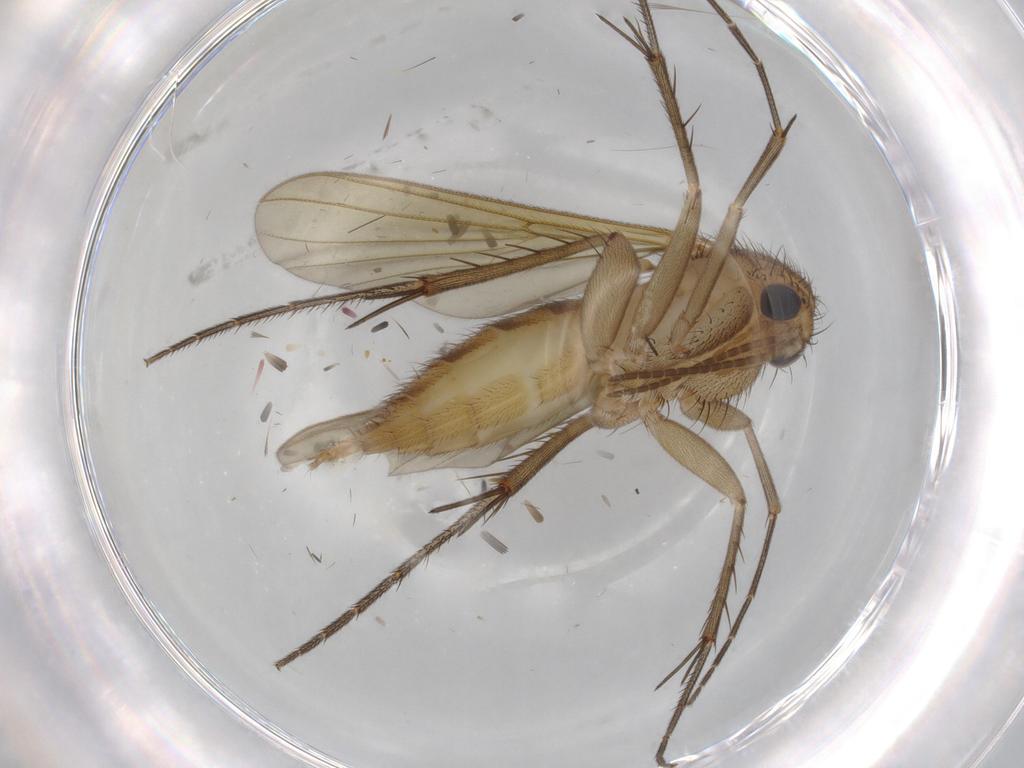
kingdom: Animalia
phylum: Arthropoda
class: Insecta
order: Diptera
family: Mycetophilidae
